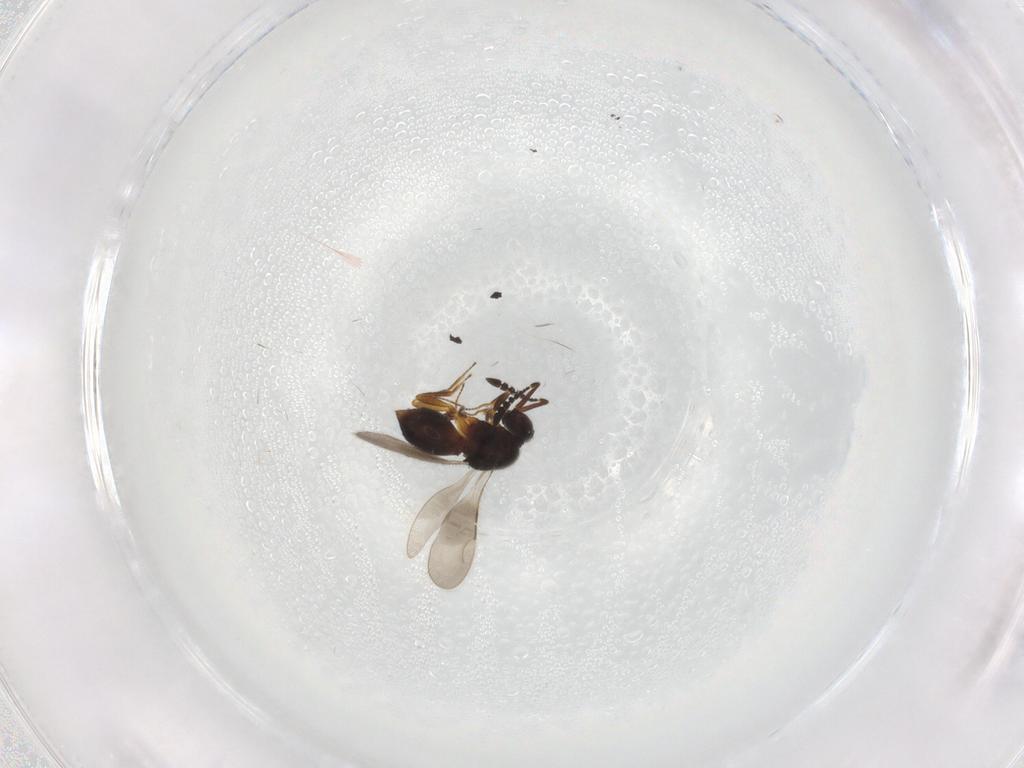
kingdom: Animalia
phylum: Arthropoda
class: Insecta
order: Hymenoptera
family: Ceraphronidae
